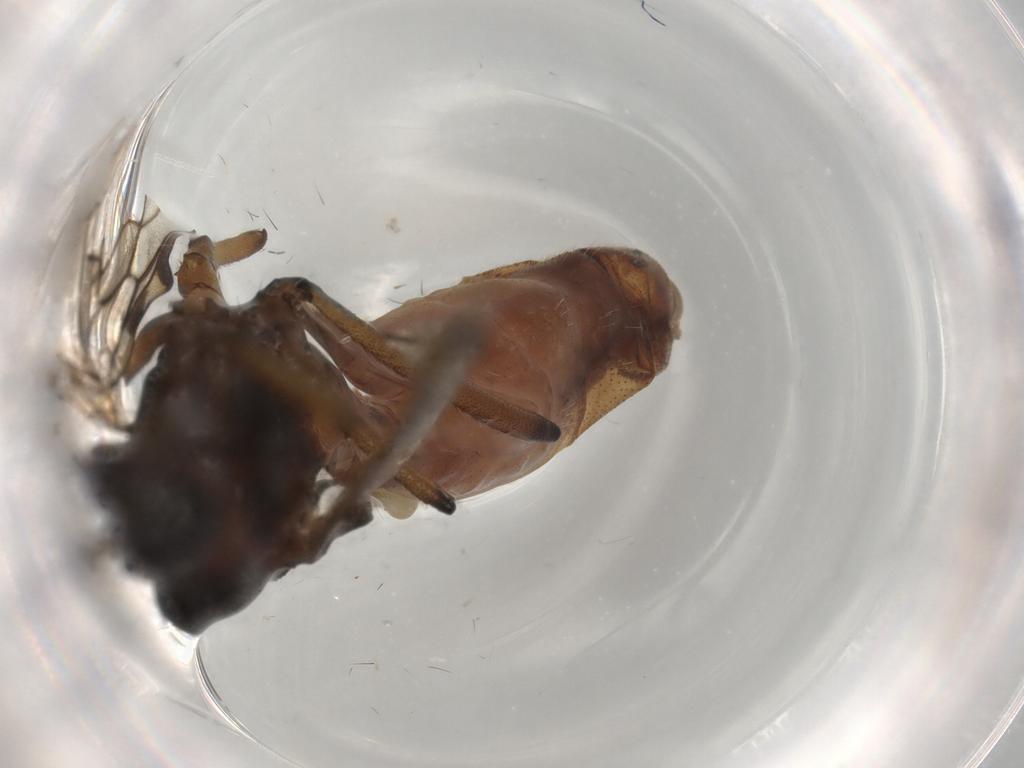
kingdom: Animalia
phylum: Arthropoda
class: Insecta
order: Diptera
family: Anisopodidae
